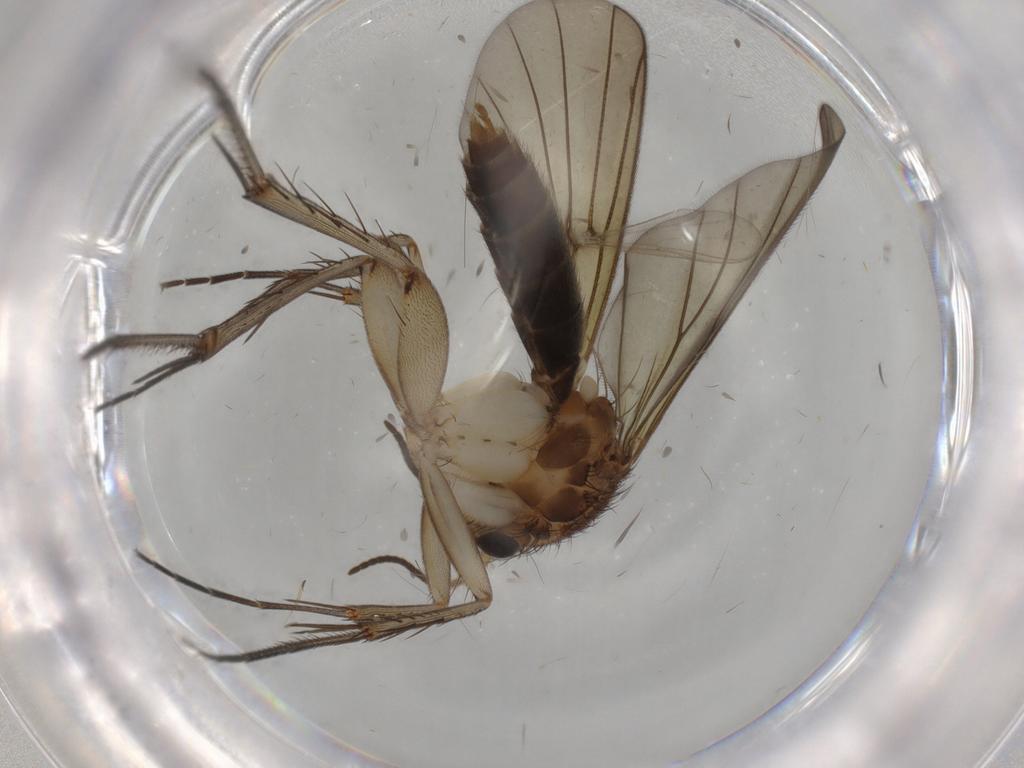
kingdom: Animalia
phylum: Arthropoda
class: Insecta
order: Diptera
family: Mycetophilidae
